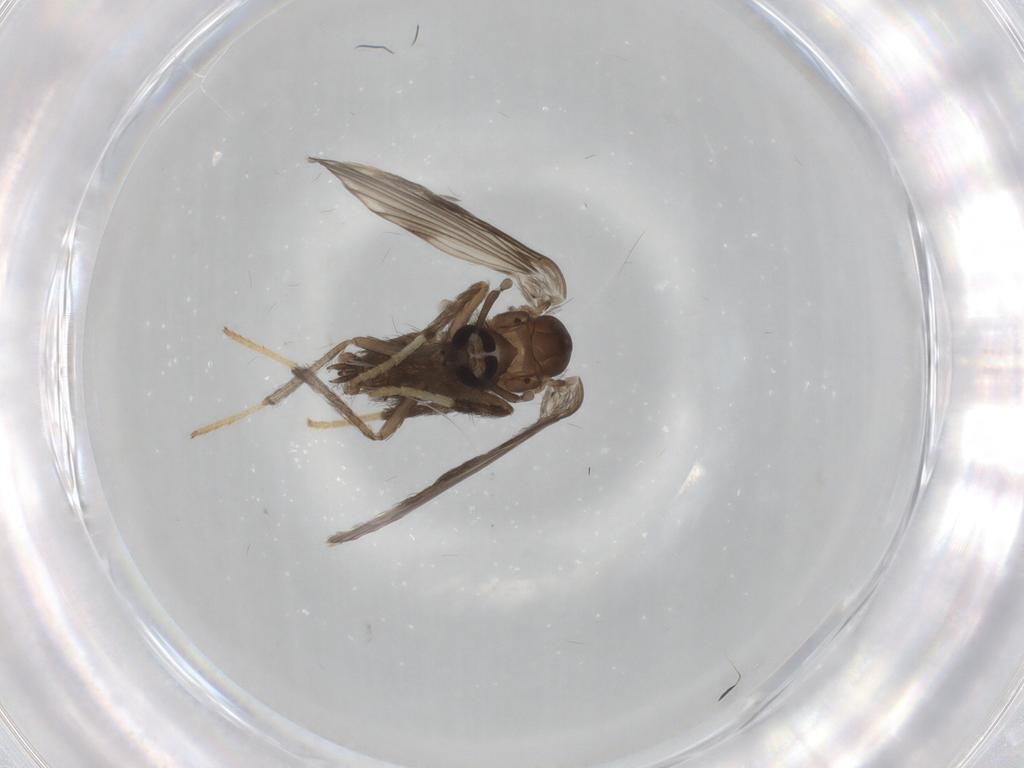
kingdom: Animalia
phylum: Arthropoda
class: Insecta
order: Diptera
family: Psychodidae
